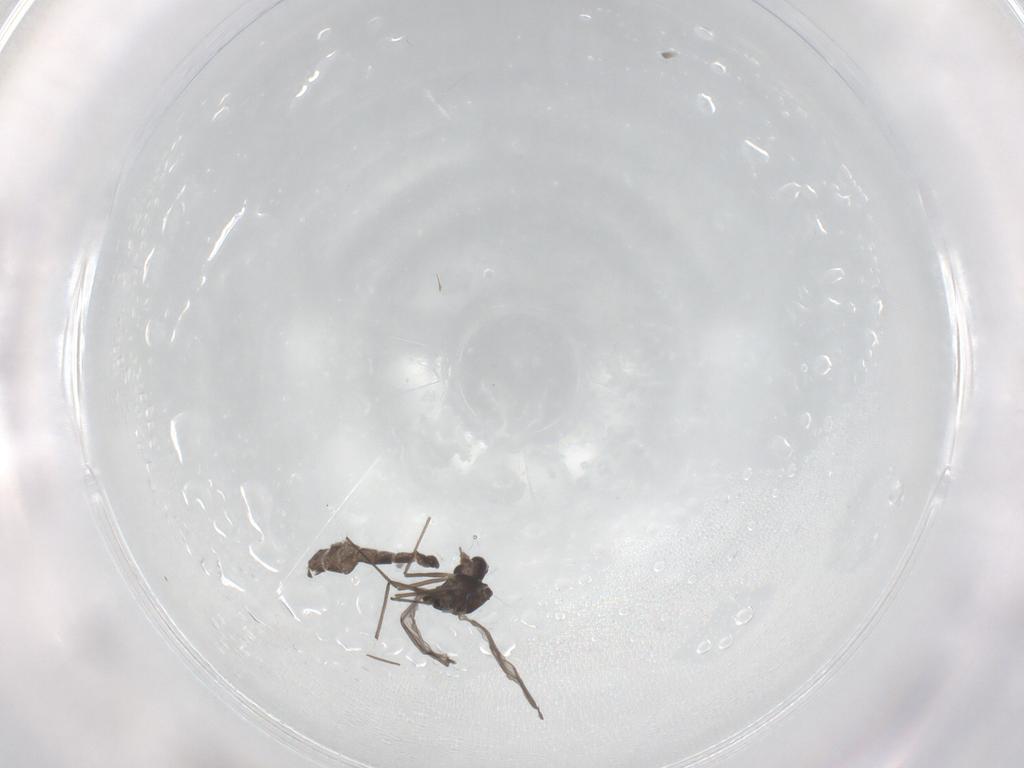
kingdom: Animalia
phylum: Arthropoda
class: Insecta
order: Diptera
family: Chironomidae
